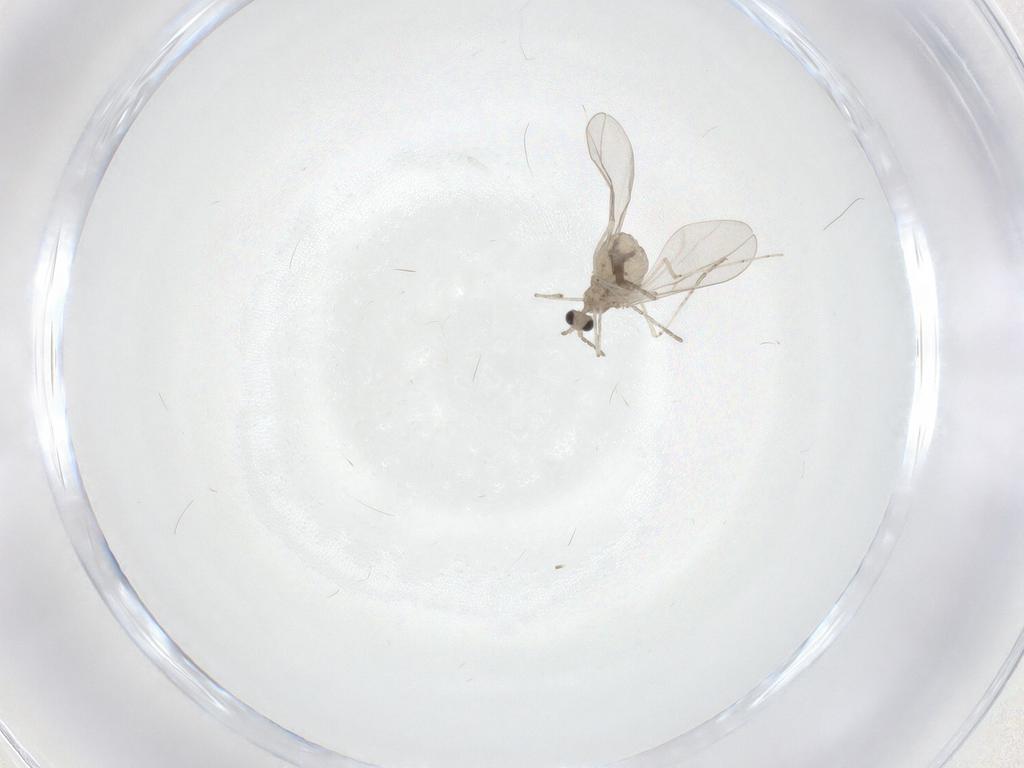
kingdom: Animalia
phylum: Arthropoda
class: Insecta
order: Diptera
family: Cecidomyiidae
